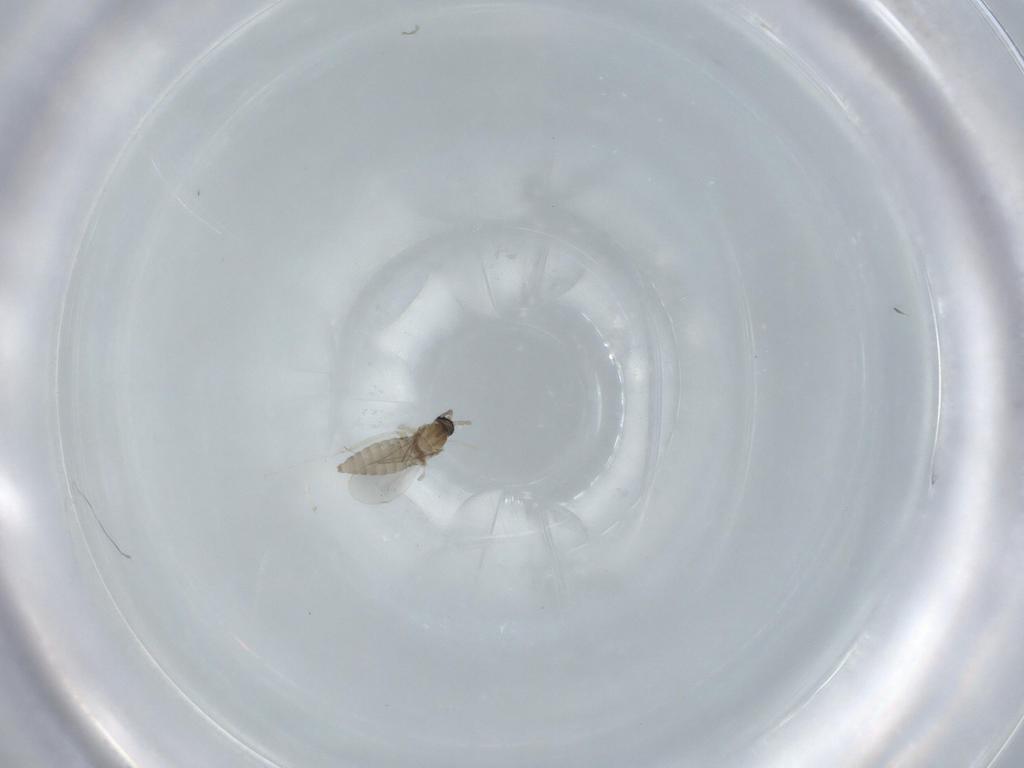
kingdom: Animalia
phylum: Arthropoda
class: Insecta
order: Diptera
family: Cecidomyiidae
